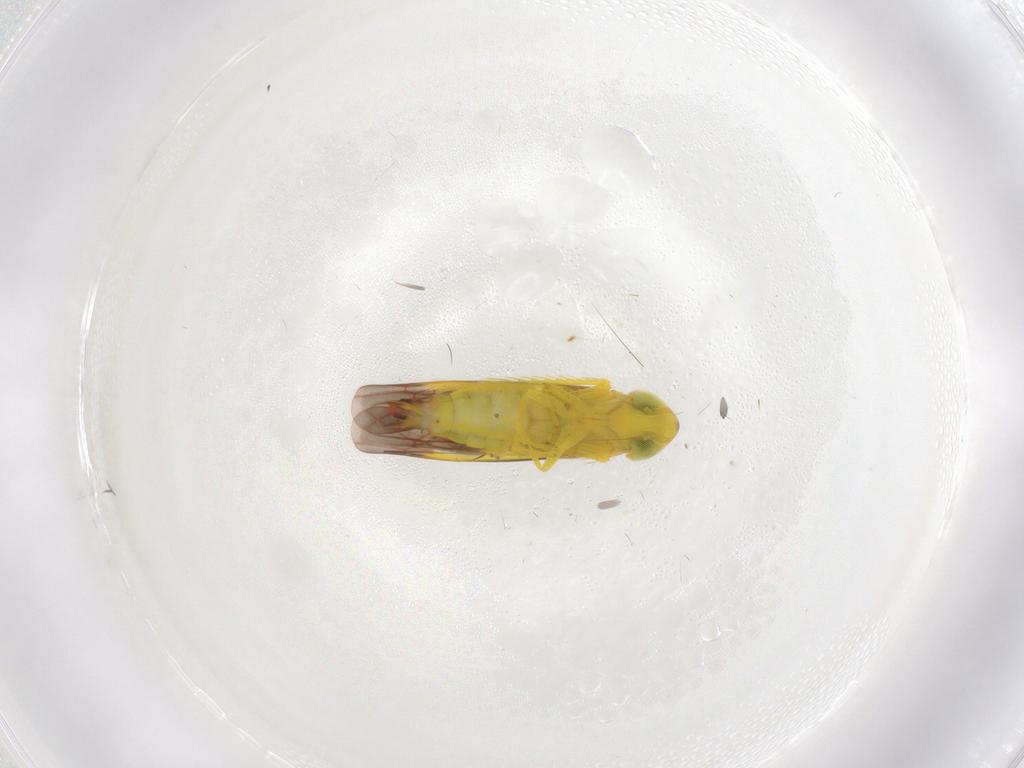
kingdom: Animalia
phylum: Arthropoda
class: Insecta
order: Hemiptera
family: Cicadellidae
